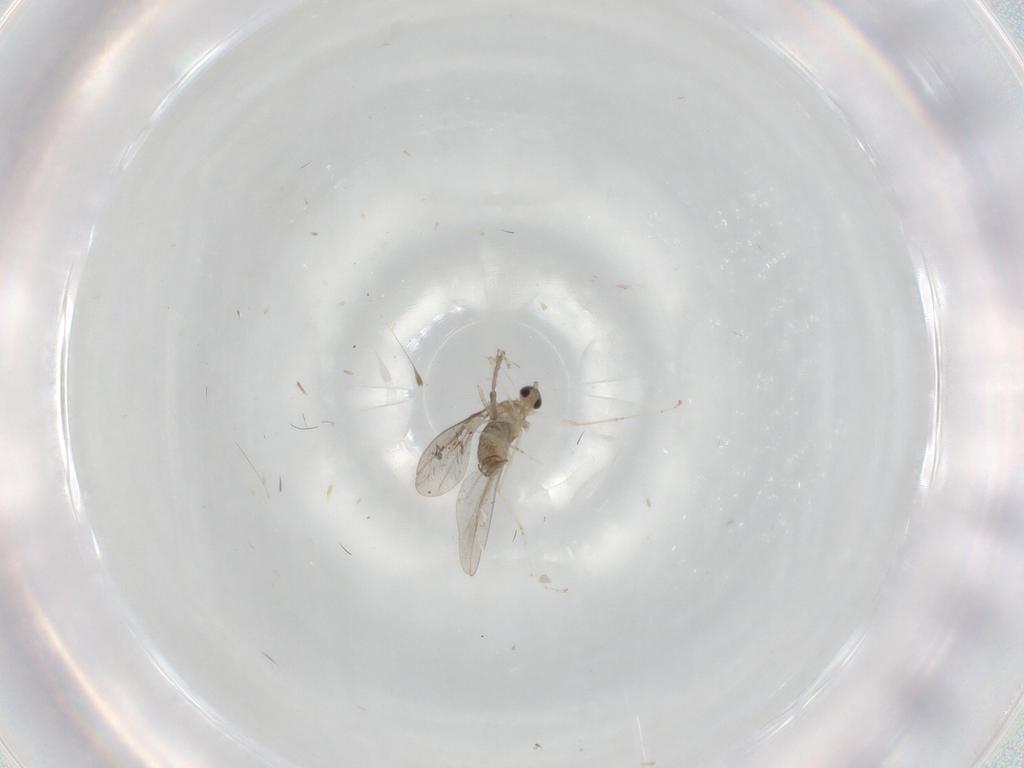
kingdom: Animalia
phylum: Arthropoda
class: Insecta
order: Diptera
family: Cecidomyiidae
